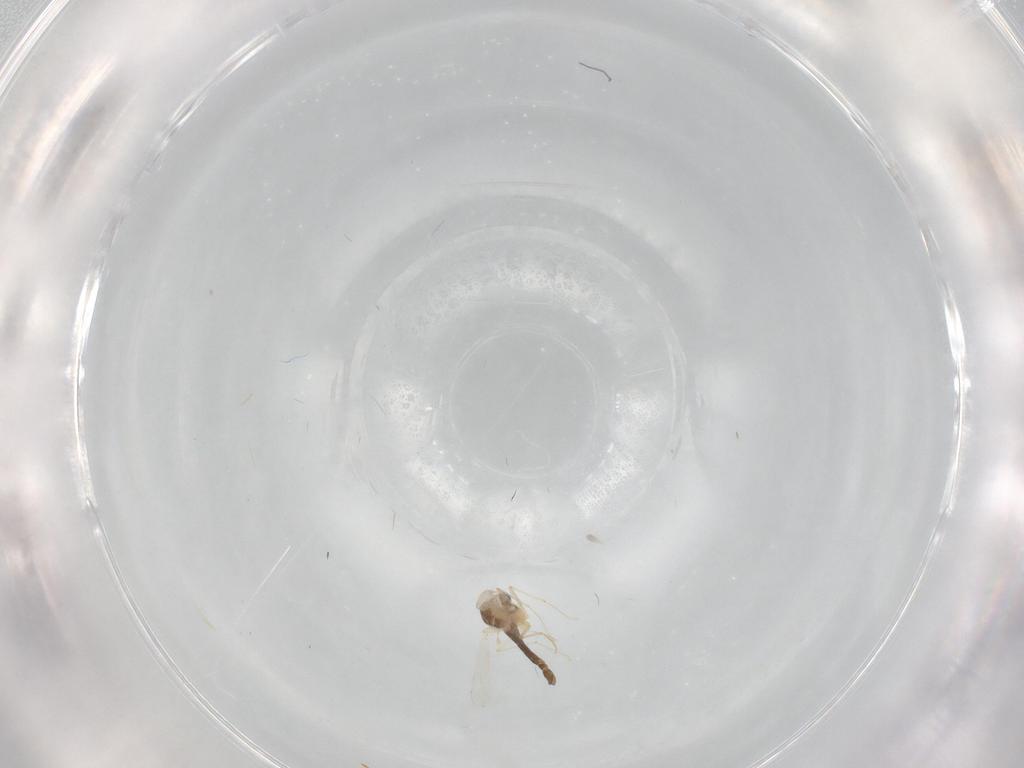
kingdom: Animalia
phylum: Arthropoda
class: Insecta
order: Diptera
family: Chironomidae
